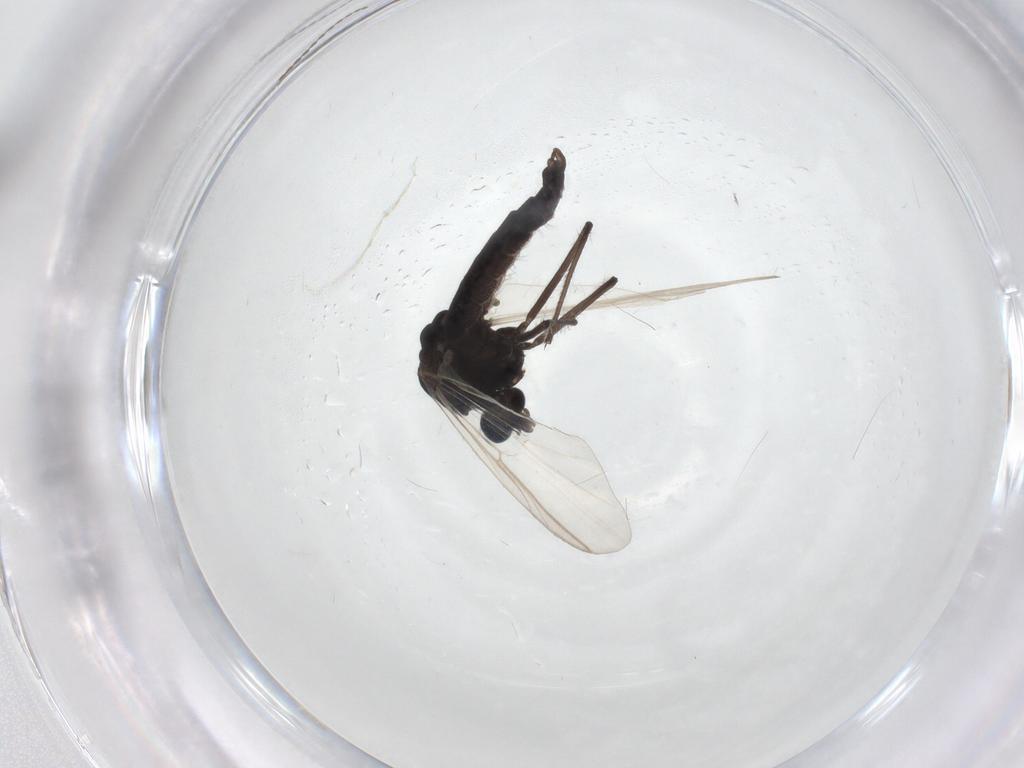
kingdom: Animalia
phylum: Arthropoda
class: Insecta
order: Diptera
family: Chironomidae
